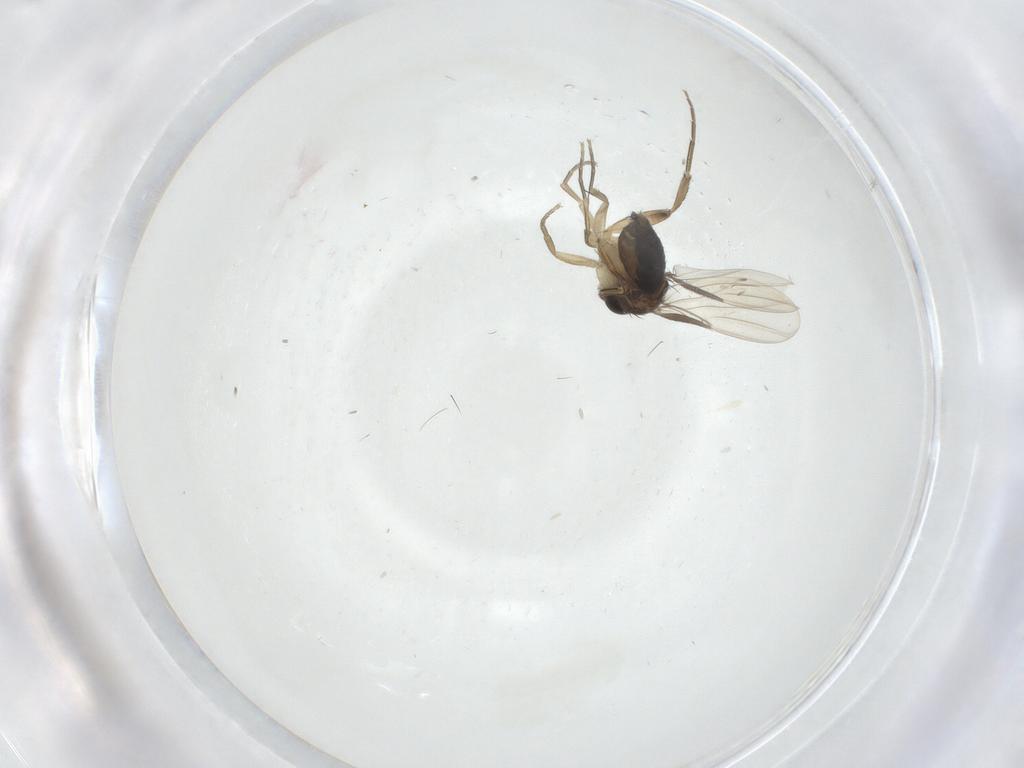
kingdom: Animalia
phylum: Arthropoda
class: Insecta
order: Diptera
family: Phoridae
